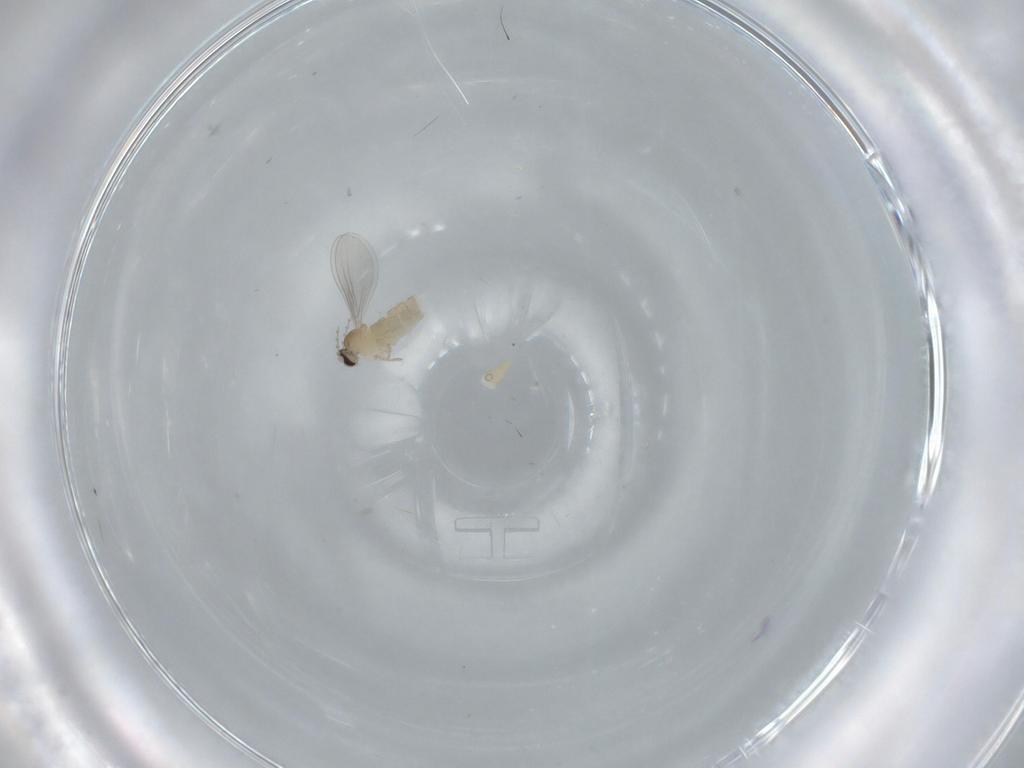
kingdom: Animalia
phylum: Arthropoda
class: Insecta
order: Diptera
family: Cecidomyiidae
